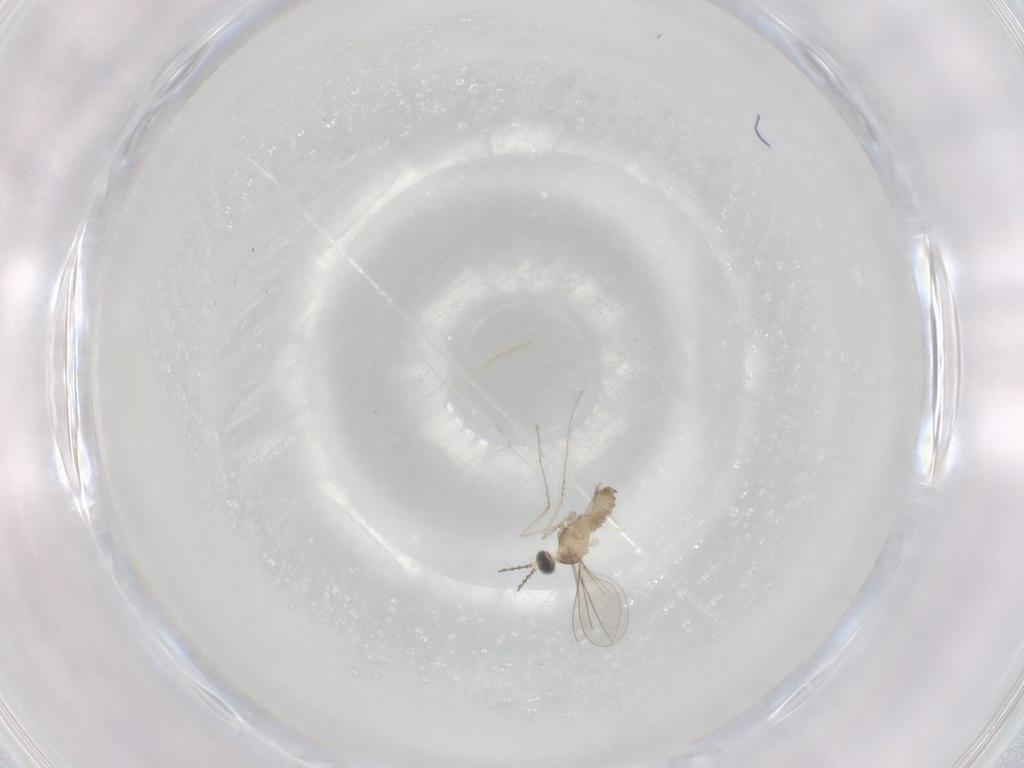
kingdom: Animalia
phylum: Arthropoda
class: Insecta
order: Diptera
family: Cecidomyiidae
